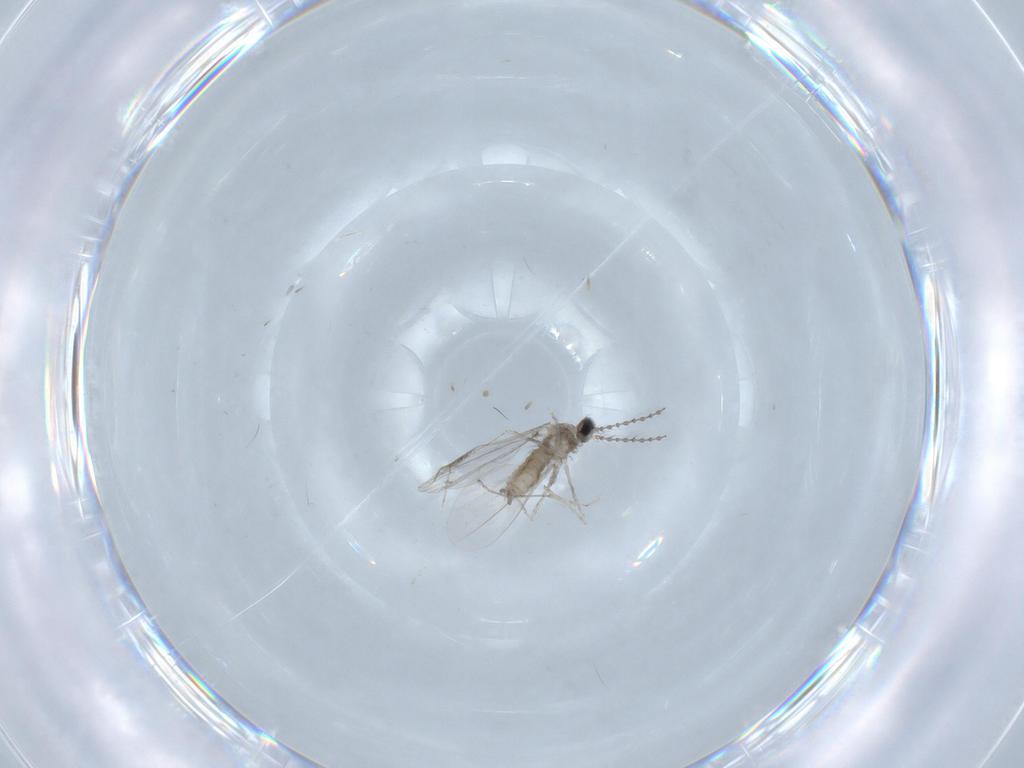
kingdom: Animalia
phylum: Arthropoda
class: Insecta
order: Diptera
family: Cecidomyiidae
